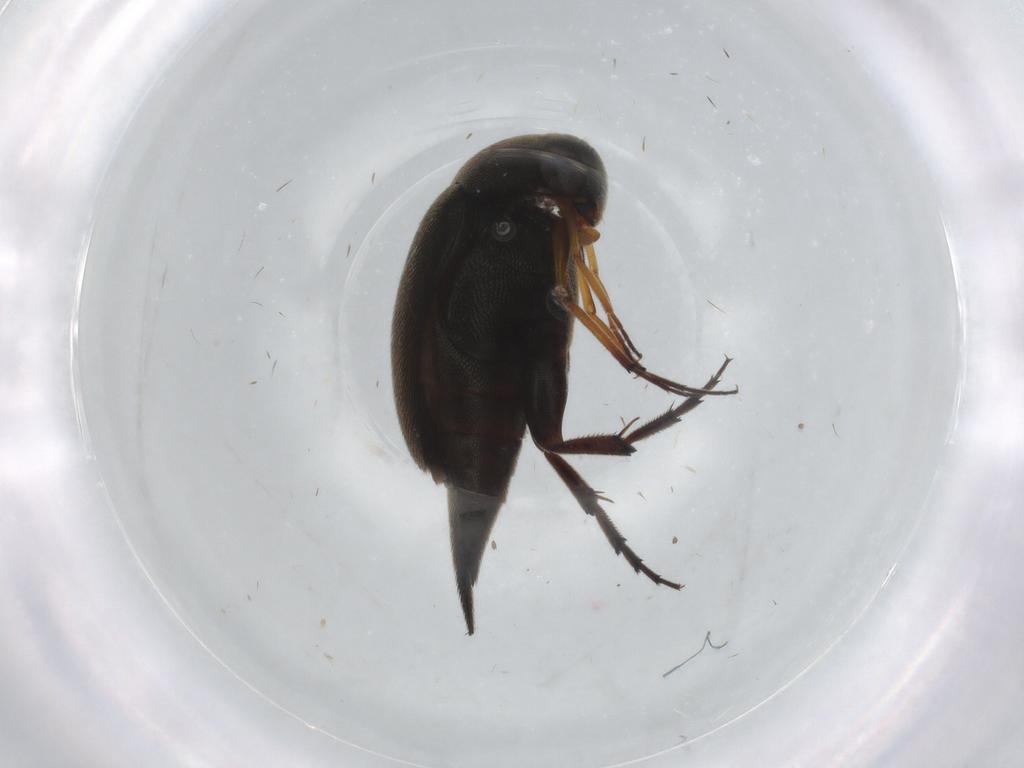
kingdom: Animalia
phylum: Arthropoda
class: Insecta
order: Coleoptera
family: Mordellidae
